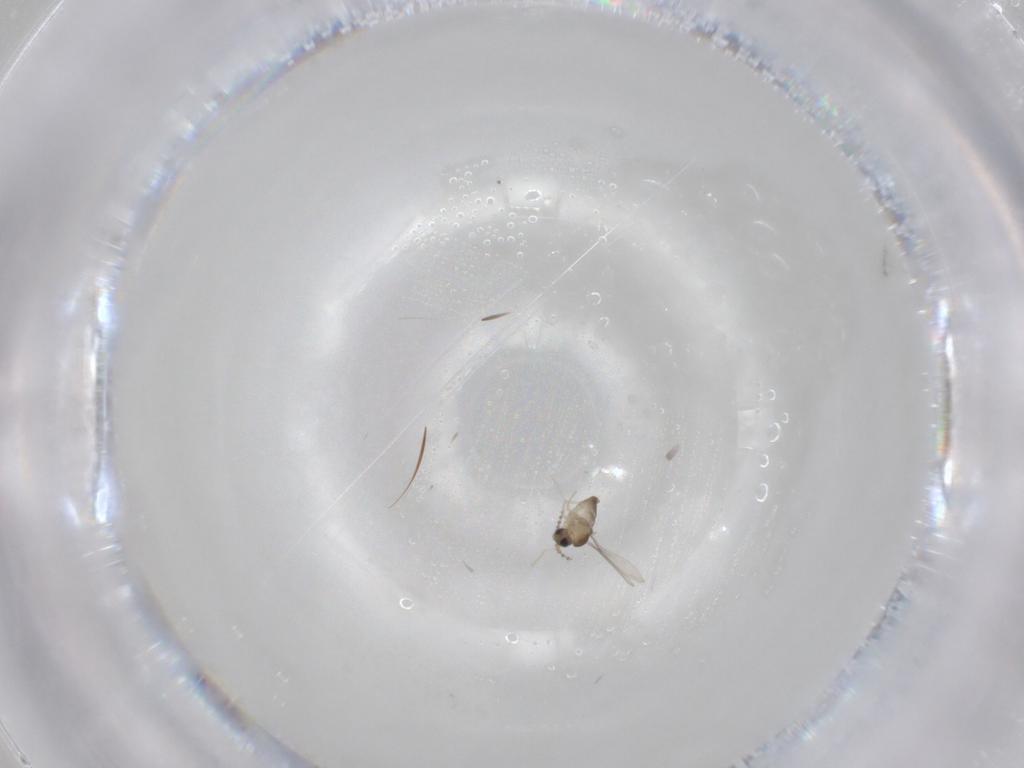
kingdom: Animalia
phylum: Arthropoda
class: Insecta
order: Diptera
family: Cecidomyiidae
